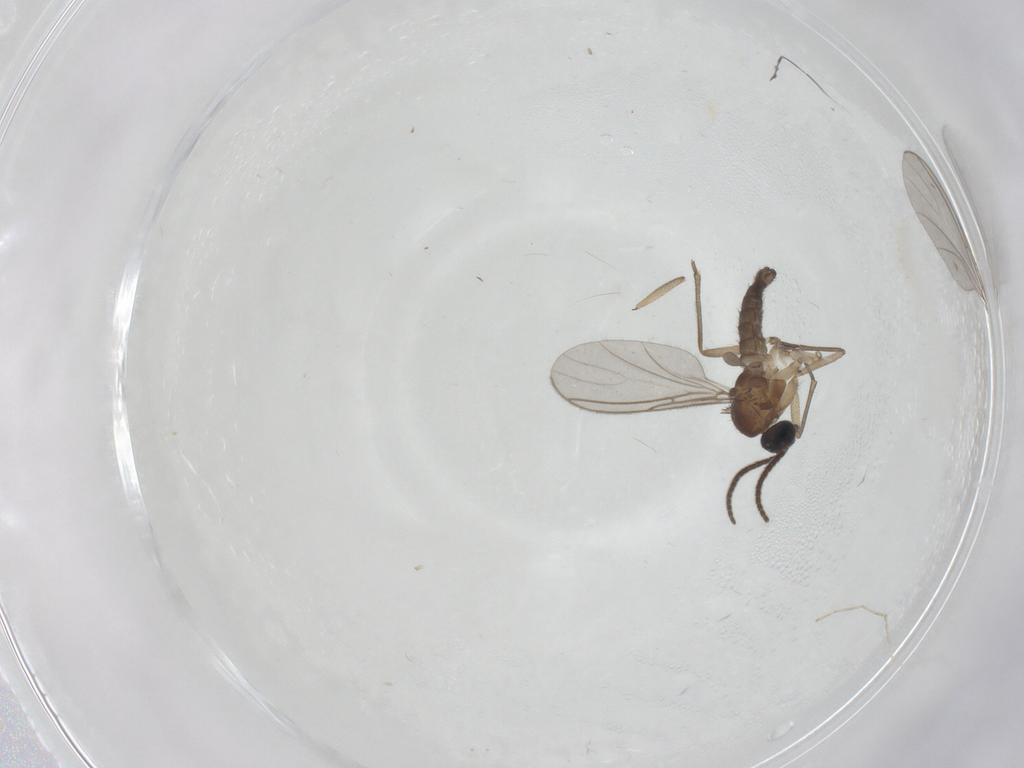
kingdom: Animalia
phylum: Arthropoda
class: Insecta
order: Diptera
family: Sciaridae
